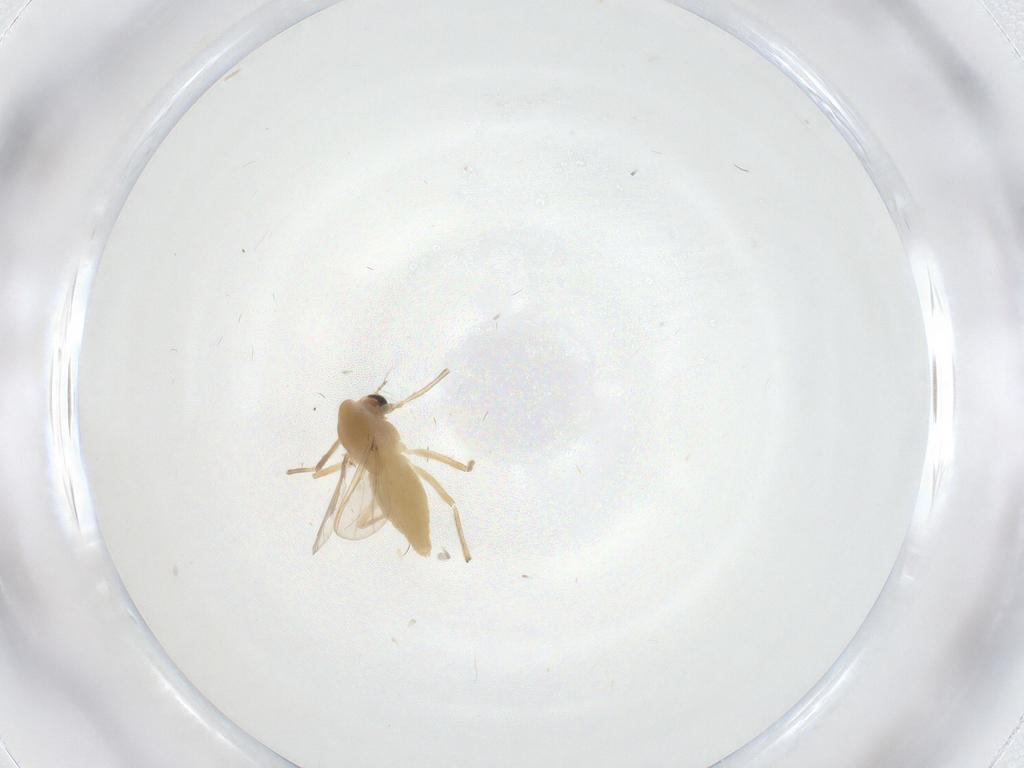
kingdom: Animalia
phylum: Arthropoda
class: Insecta
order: Diptera
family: Chironomidae
